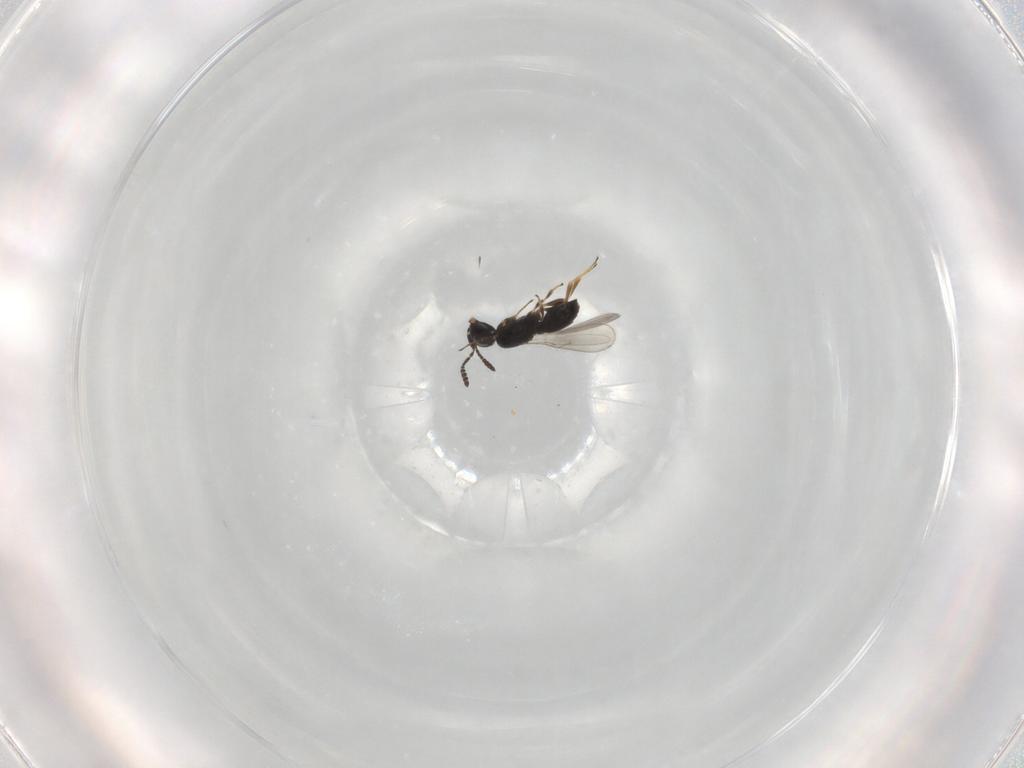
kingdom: Animalia
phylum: Arthropoda
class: Insecta
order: Hymenoptera
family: Scelionidae
